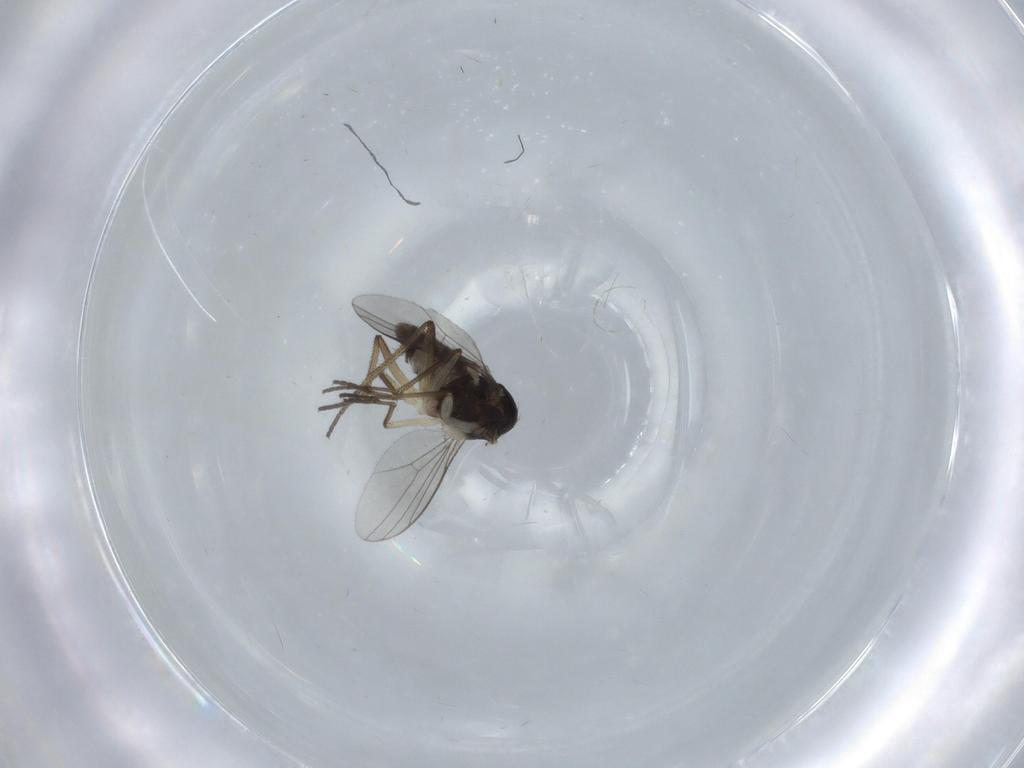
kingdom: Animalia
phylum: Arthropoda
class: Insecta
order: Diptera
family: Dolichopodidae
